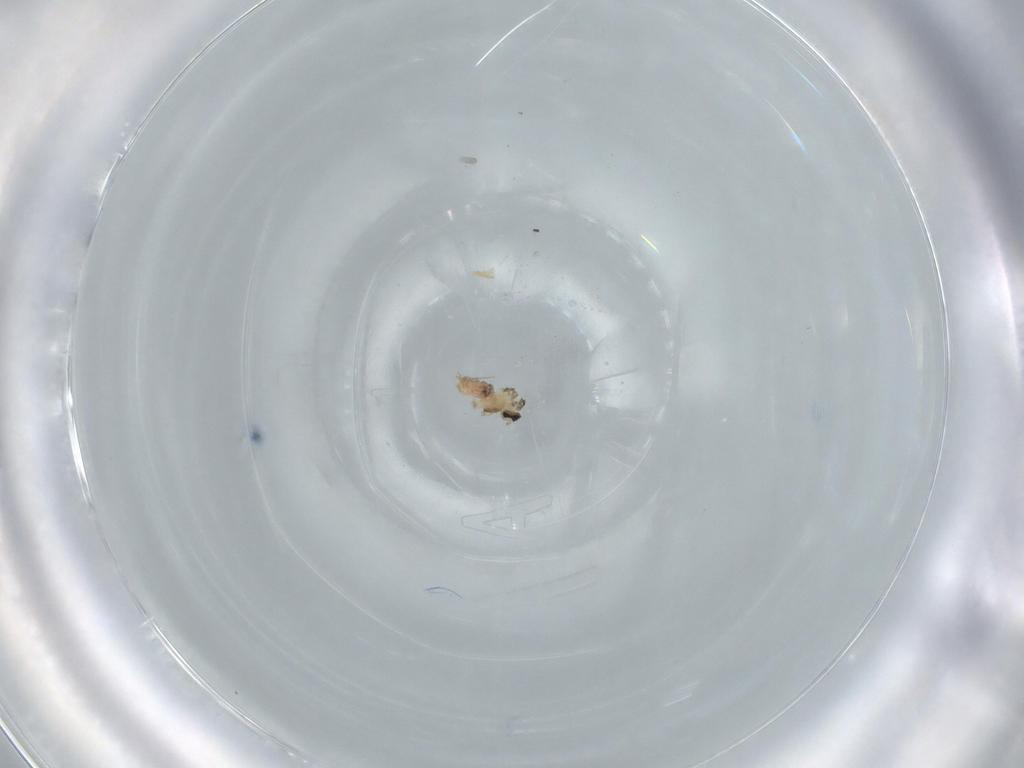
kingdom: Animalia
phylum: Arthropoda
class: Insecta
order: Diptera
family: Cecidomyiidae
